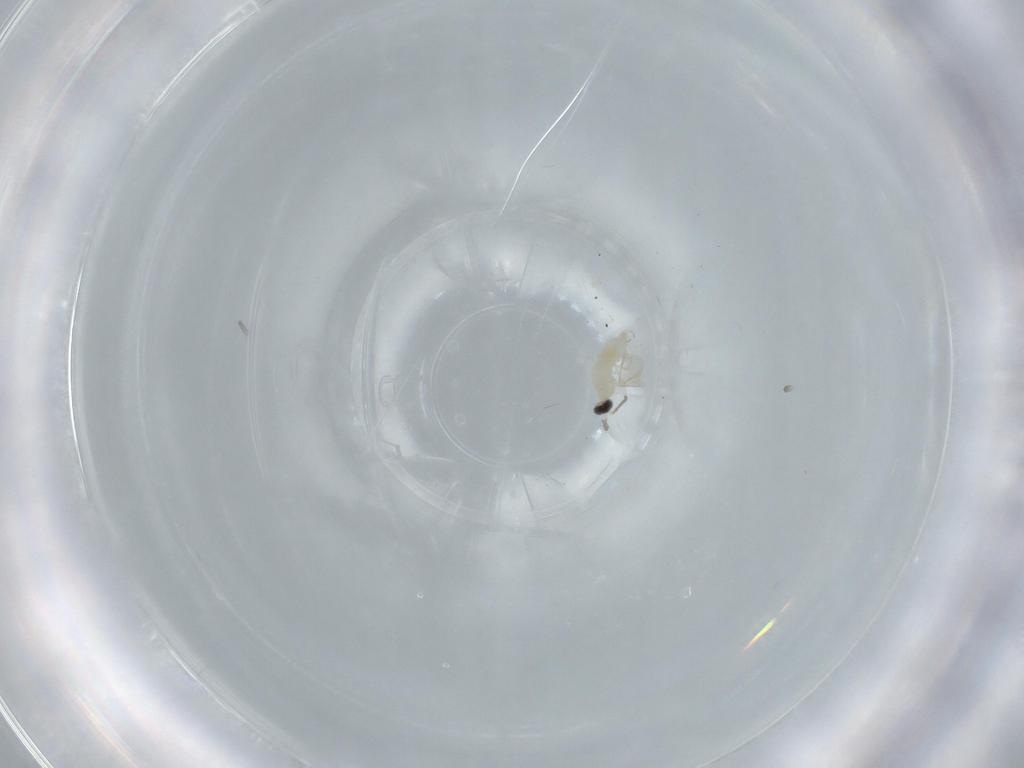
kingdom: Animalia
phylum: Arthropoda
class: Insecta
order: Diptera
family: Cecidomyiidae
